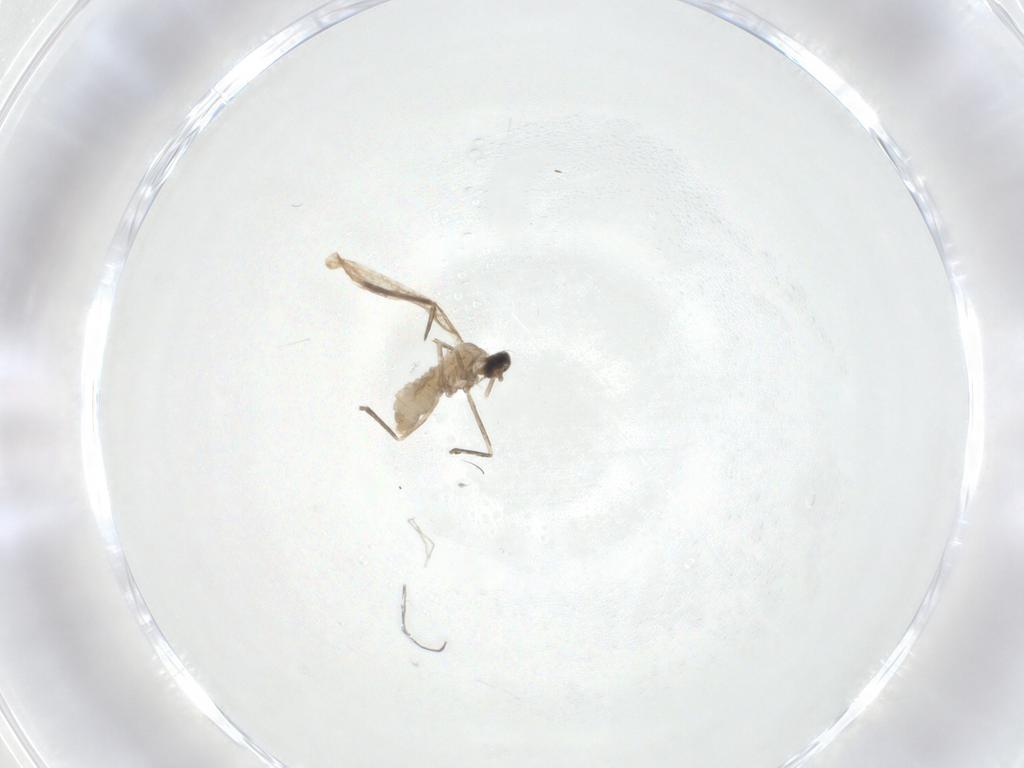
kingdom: Animalia
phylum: Arthropoda
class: Insecta
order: Diptera
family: Cecidomyiidae
